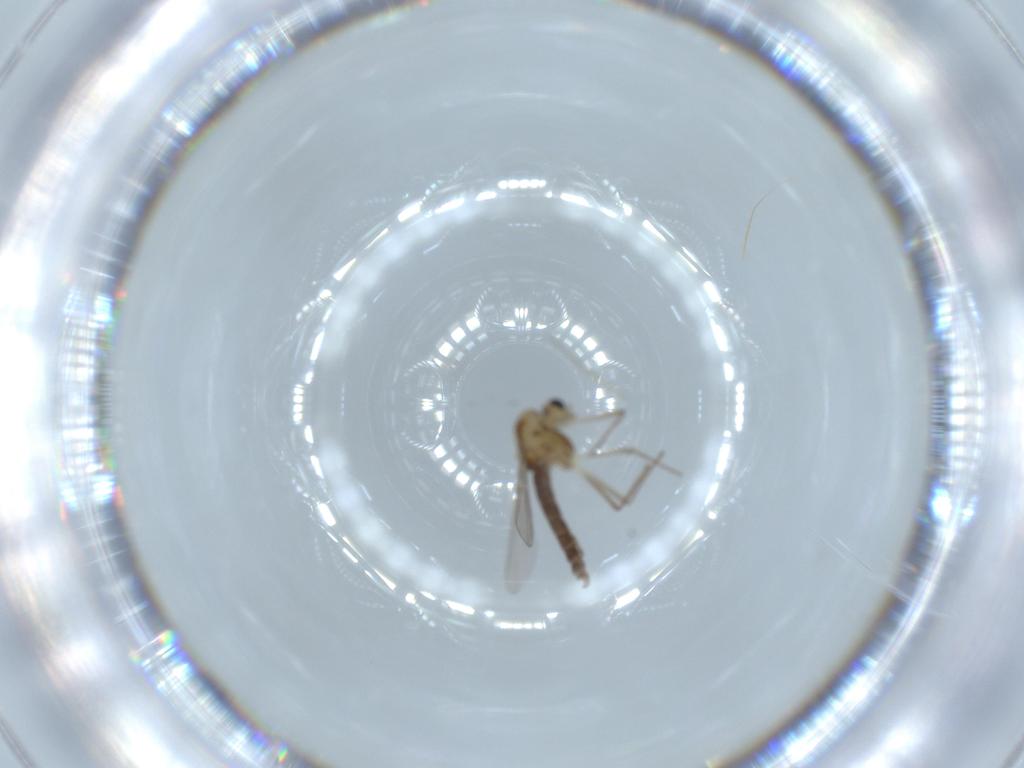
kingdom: Animalia
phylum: Arthropoda
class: Insecta
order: Diptera
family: Chironomidae
